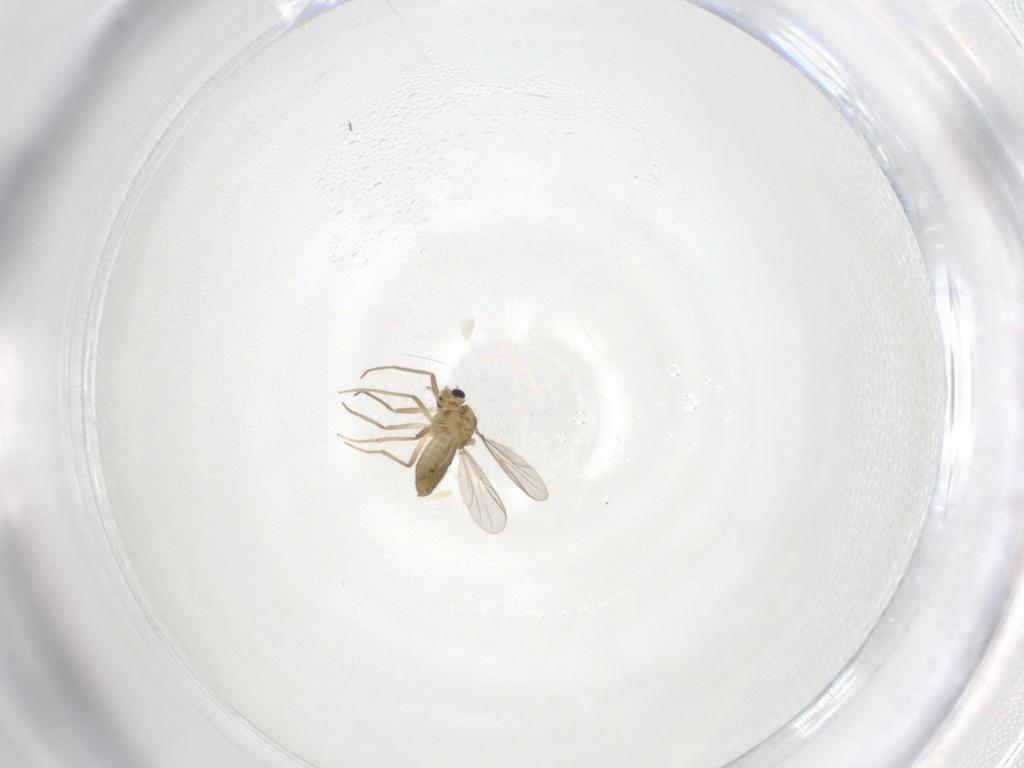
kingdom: Animalia
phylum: Arthropoda
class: Insecta
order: Diptera
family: Chironomidae
